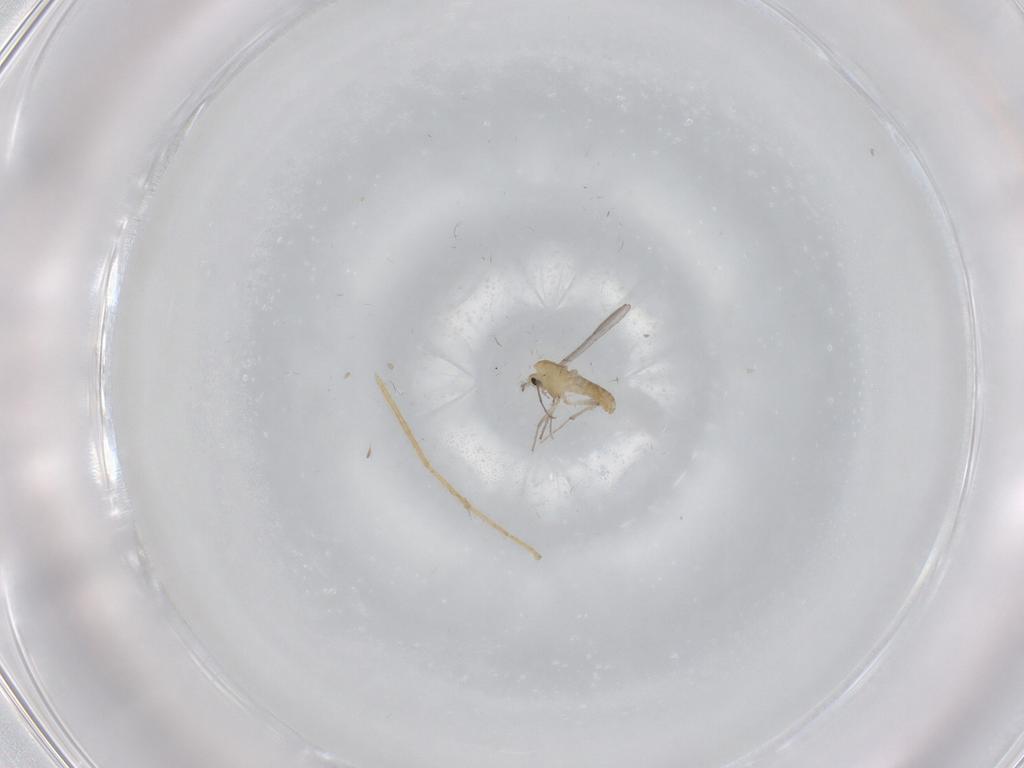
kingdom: Animalia
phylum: Arthropoda
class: Insecta
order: Diptera
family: Chironomidae
